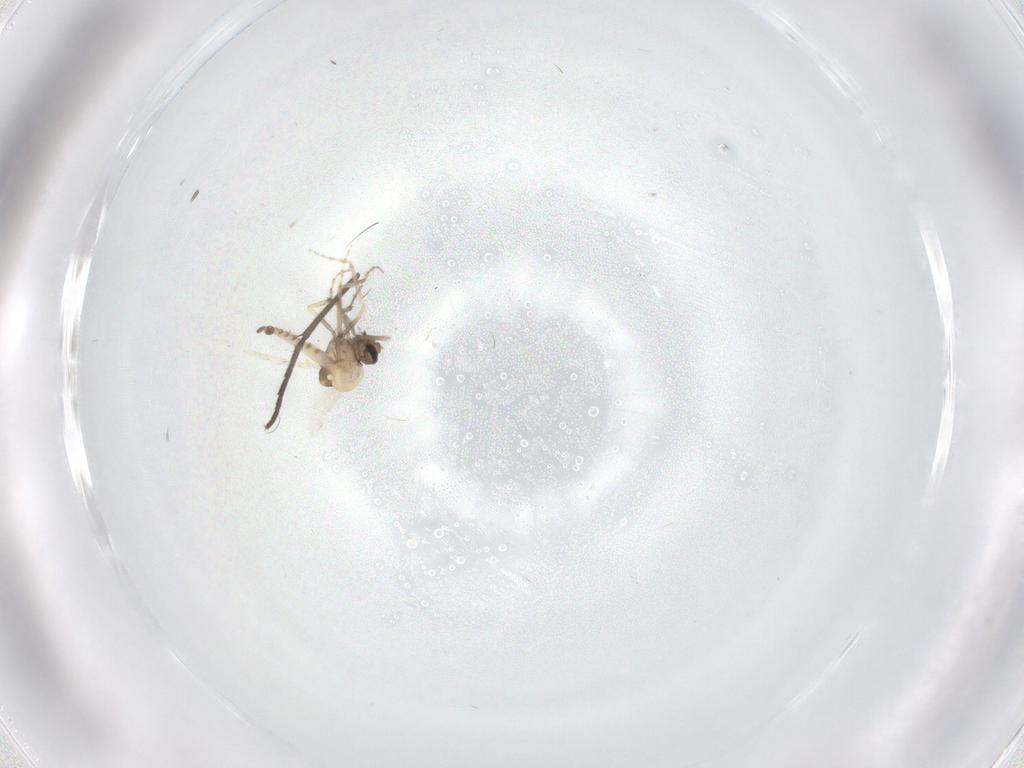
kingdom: Animalia
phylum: Arthropoda
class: Insecta
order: Diptera
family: Sciaridae
